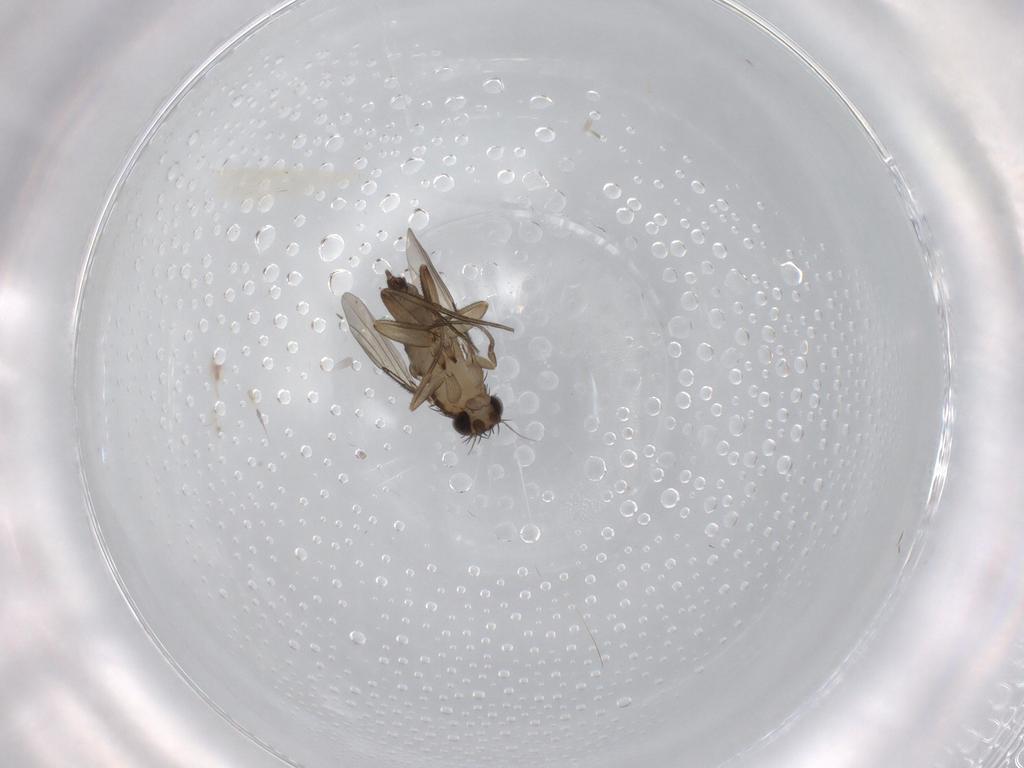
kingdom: Animalia
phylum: Arthropoda
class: Insecta
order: Diptera
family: Phoridae
